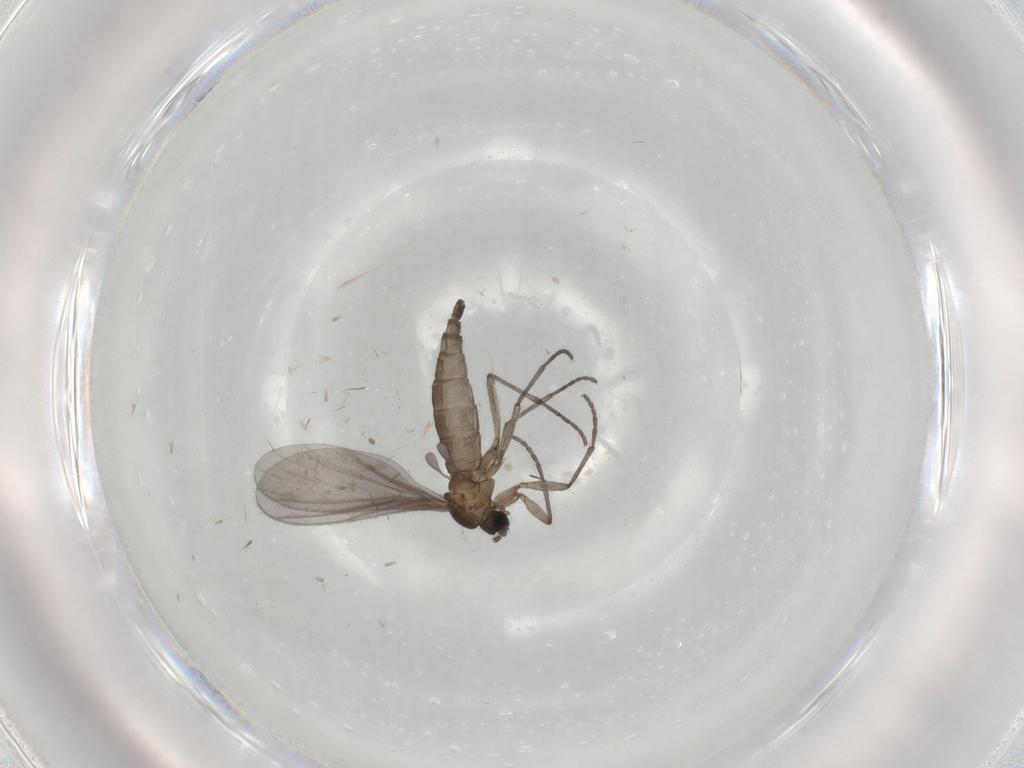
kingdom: Animalia
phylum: Arthropoda
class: Insecta
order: Diptera
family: Sciaridae
